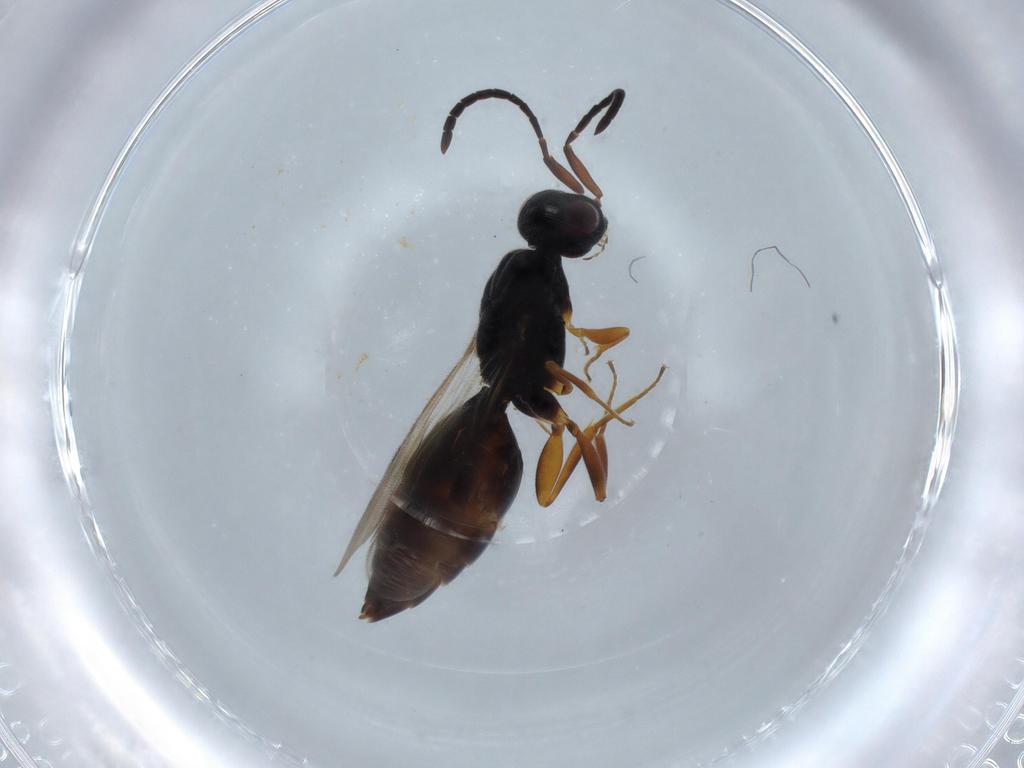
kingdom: Animalia
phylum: Arthropoda
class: Insecta
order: Hymenoptera
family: Megaspilidae
